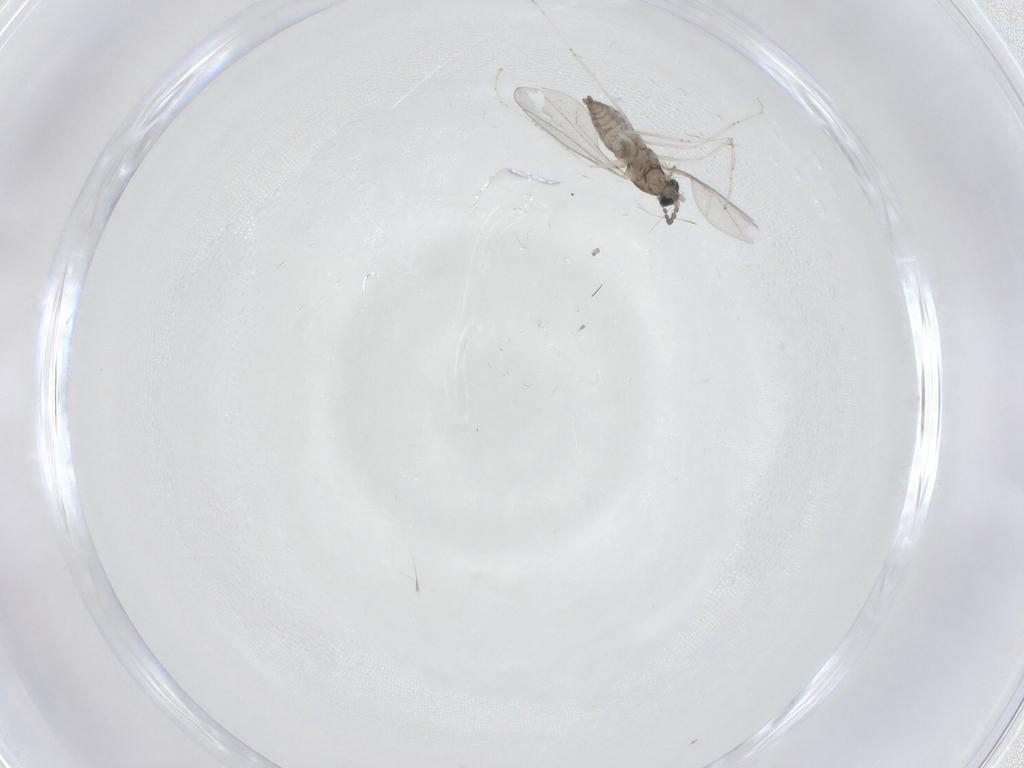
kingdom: Animalia
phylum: Arthropoda
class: Insecta
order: Diptera
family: Cecidomyiidae
